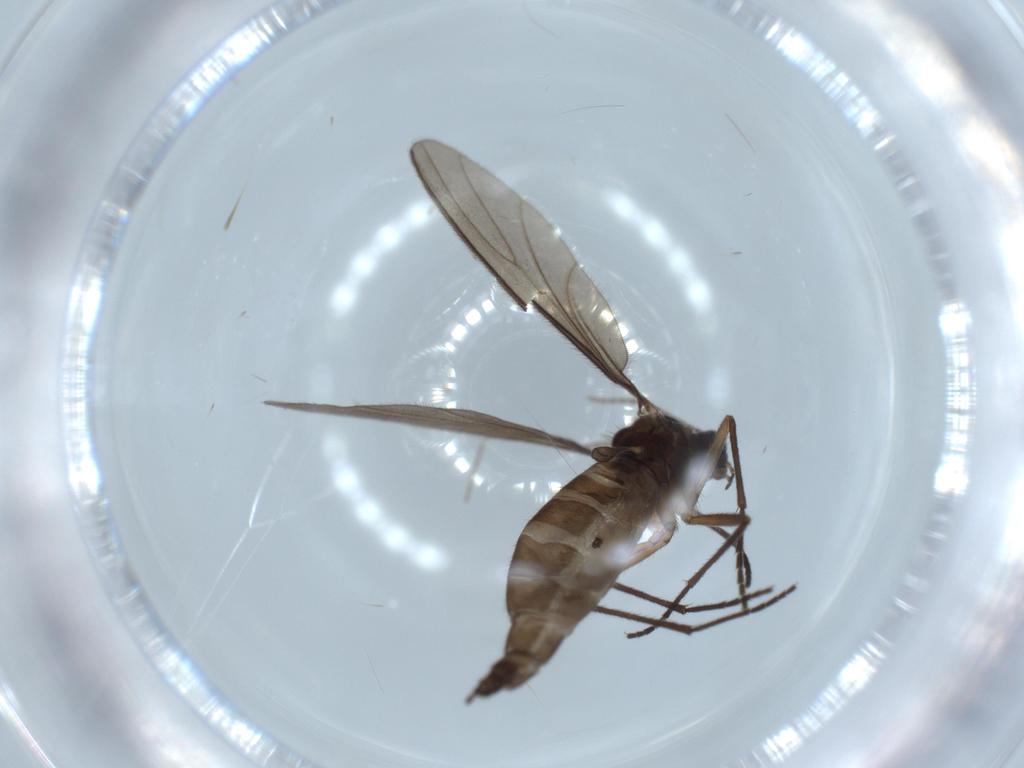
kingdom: Animalia
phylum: Arthropoda
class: Insecta
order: Diptera
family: Sciaridae
